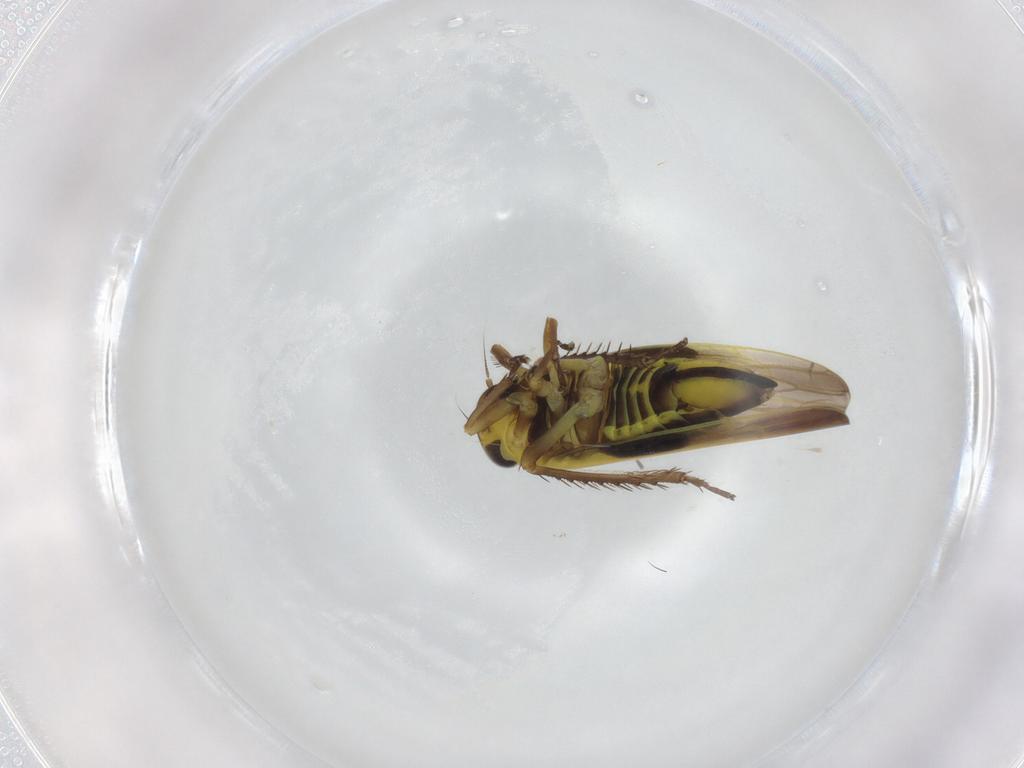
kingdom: Animalia
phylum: Arthropoda
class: Insecta
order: Hemiptera
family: Cicadellidae
